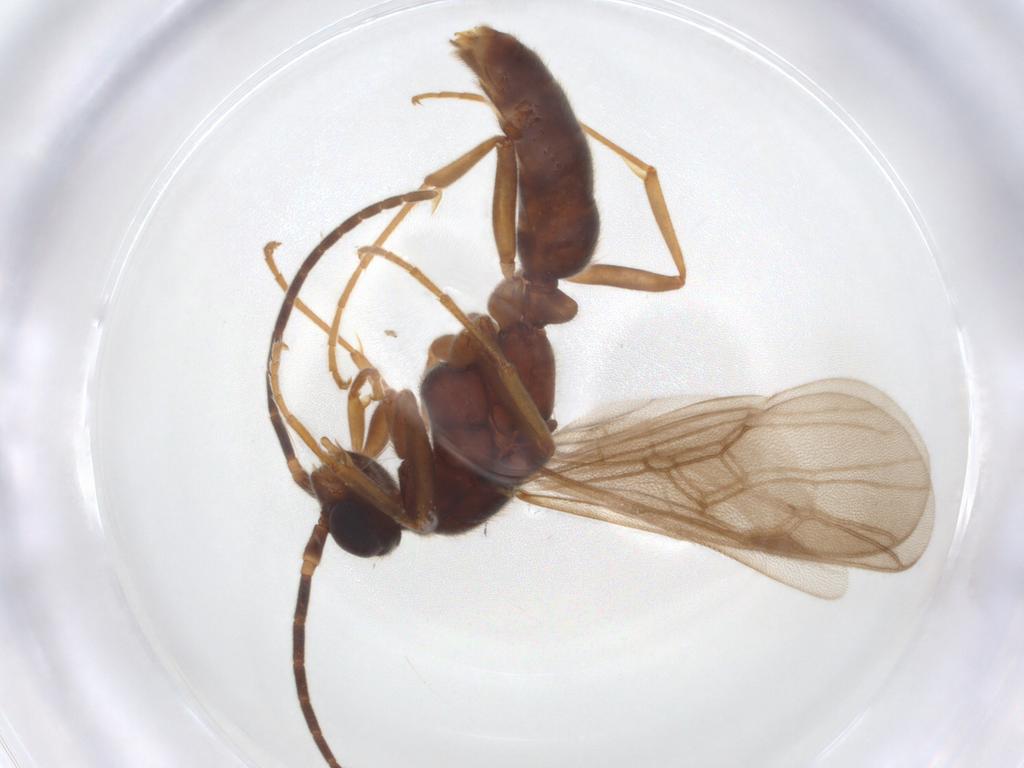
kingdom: Animalia
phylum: Arthropoda
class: Insecta
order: Hymenoptera
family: Formicidae
